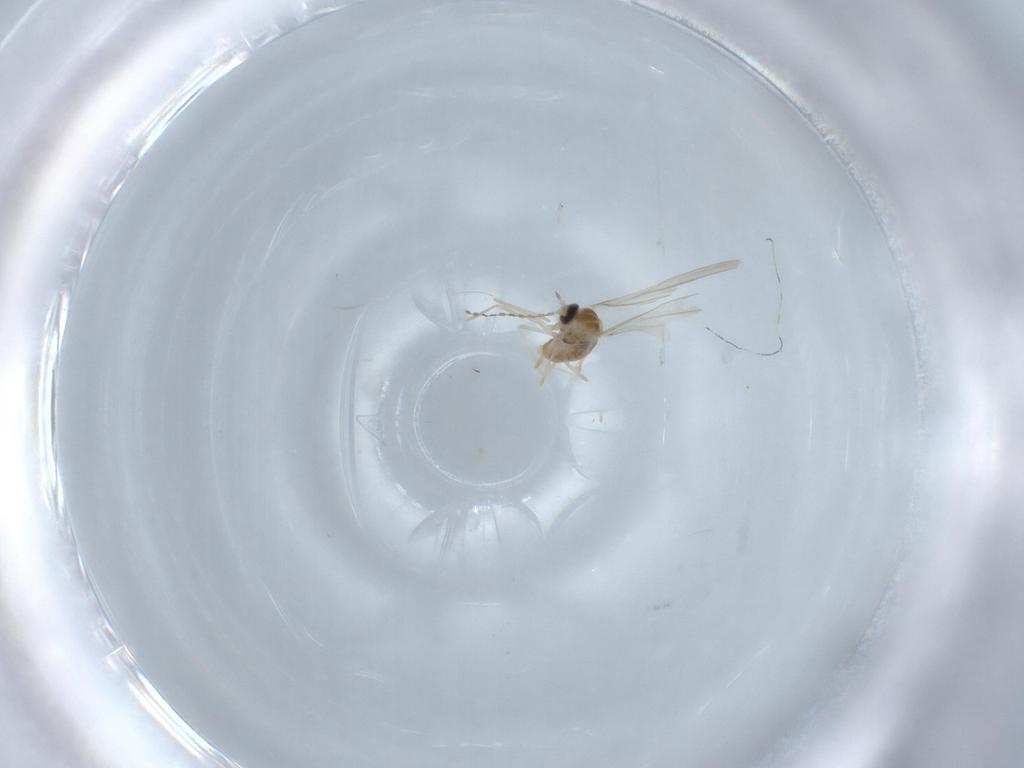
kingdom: Animalia
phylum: Arthropoda
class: Insecta
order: Diptera
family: Cecidomyiidae
